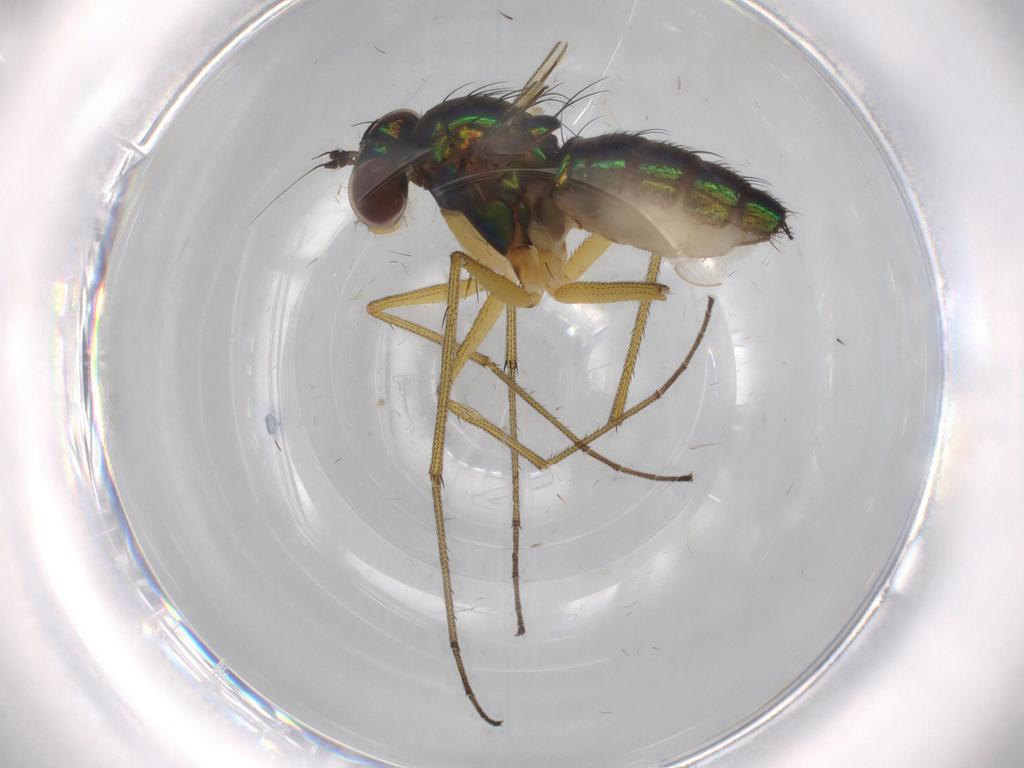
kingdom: Animalia
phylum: Arthropoda
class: Insecta
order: Diptera
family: Dolichopodidae
